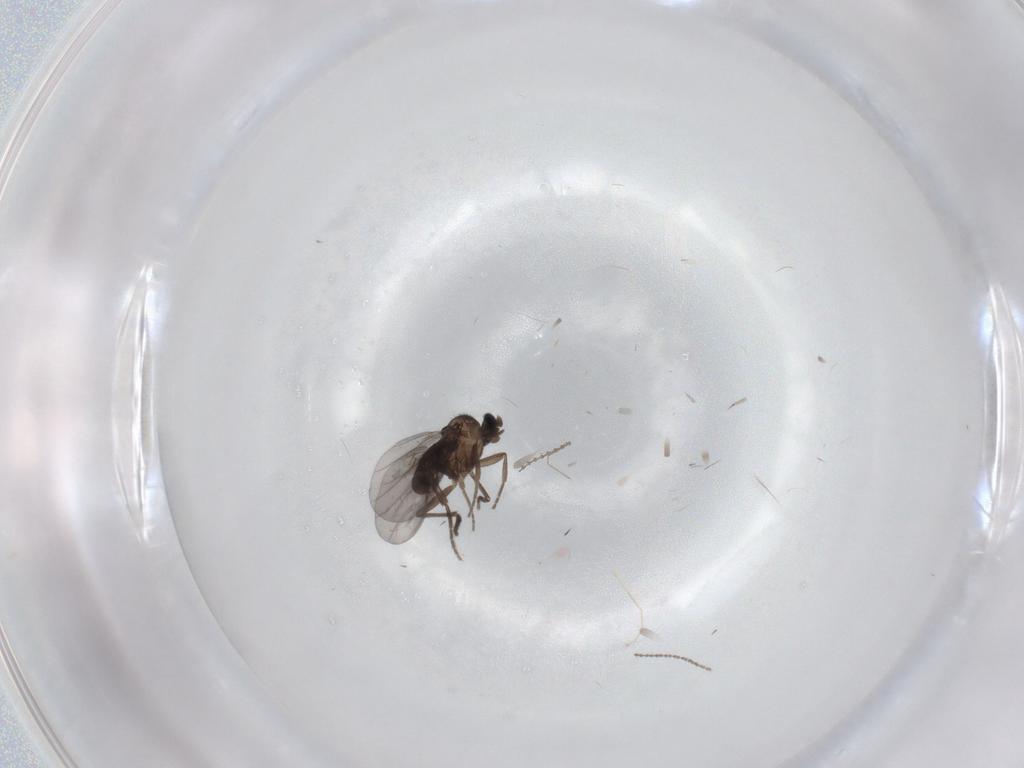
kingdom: Animalia
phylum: Arthropoda
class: Insecta
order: Diptera
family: Cecidomyiidae
